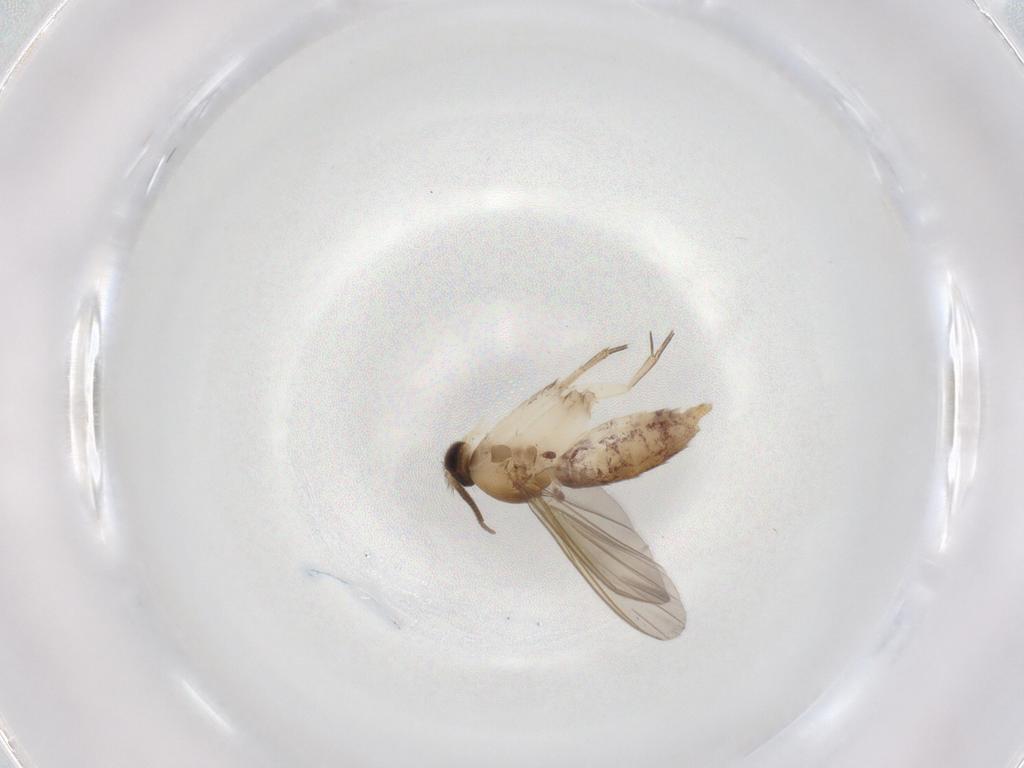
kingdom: Animalia
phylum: Arthropoda
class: Insecta
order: Diptera
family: Mycetophilidae
